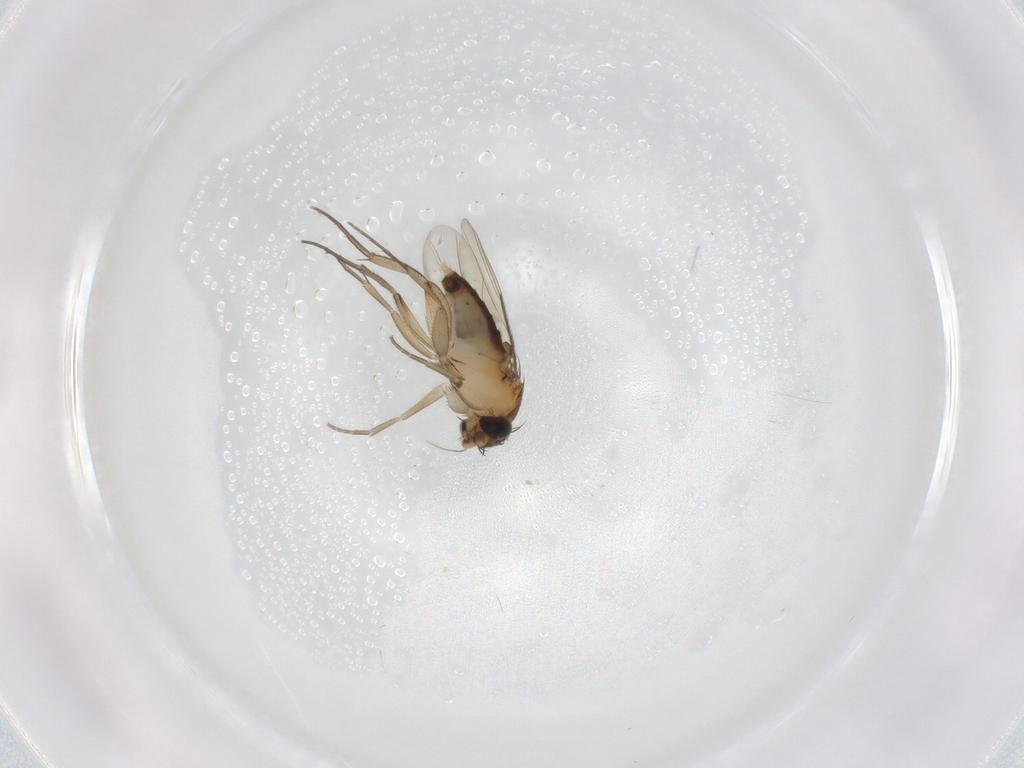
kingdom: Animalia
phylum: Arthropoda
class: Insecta
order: Diptera
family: Phoridae
